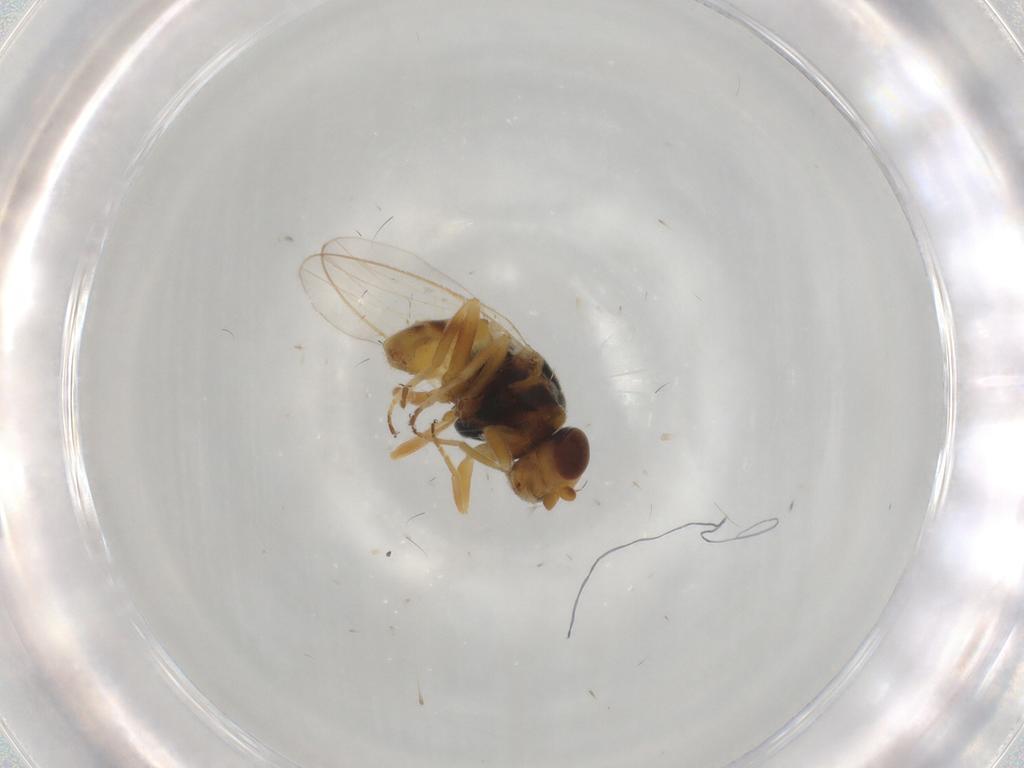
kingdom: Animalia
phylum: Arthropoda
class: Insecta
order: Diptera
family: Chloropidae
